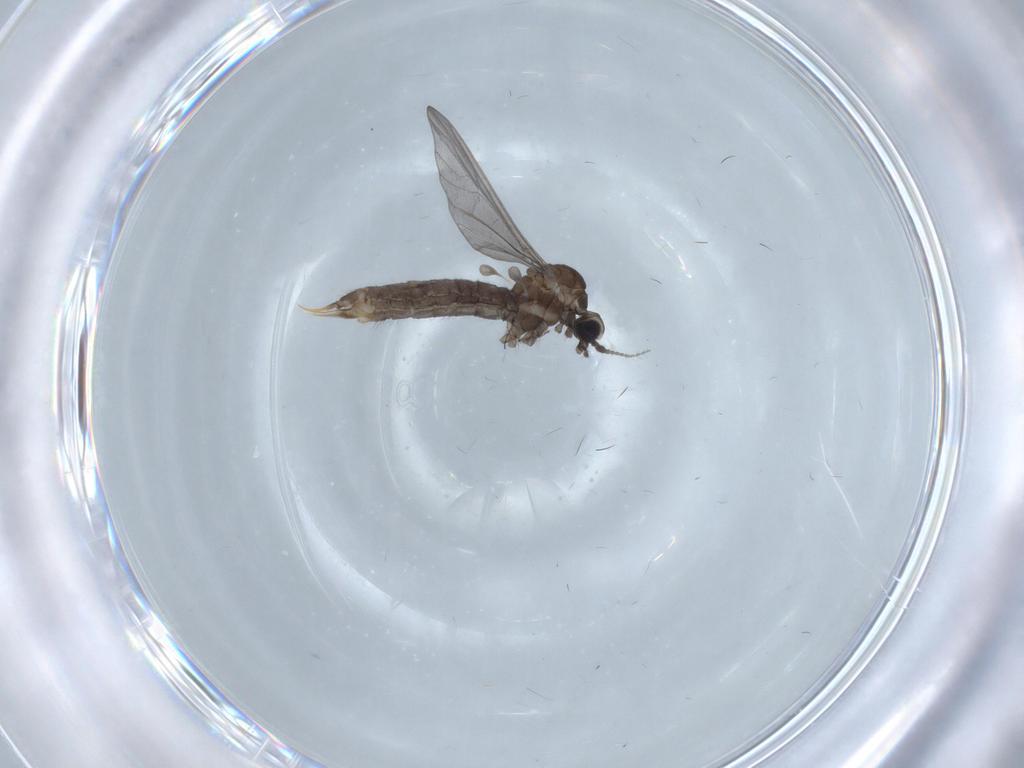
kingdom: Animalia
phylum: Arthropoda
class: Insecta
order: Diptera
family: Limoniidae
